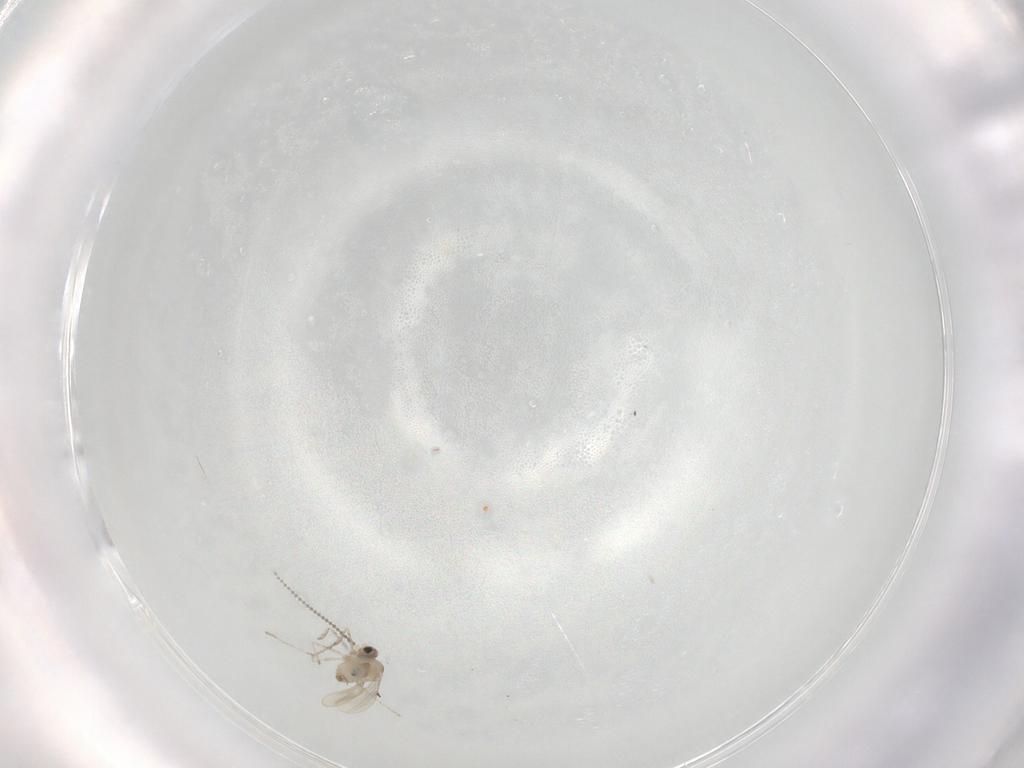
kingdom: Animalia
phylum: Arthropoda
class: Insecta
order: Diptera
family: Cecidomyiidae
